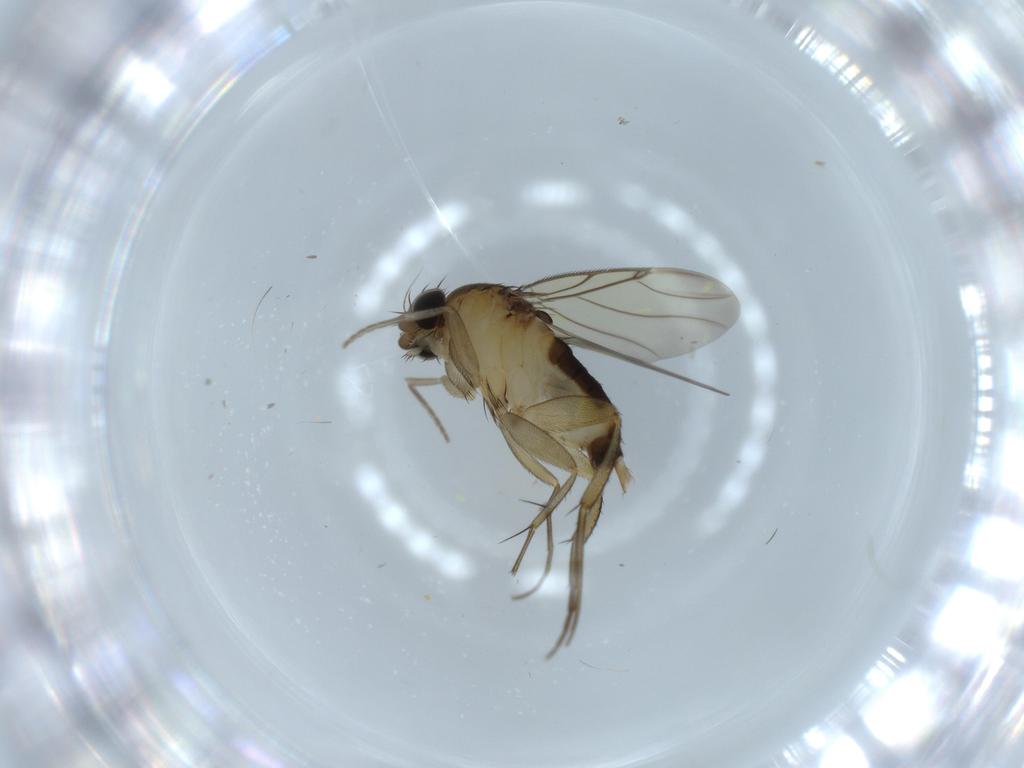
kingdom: Animalia
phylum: Arthropoda
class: Insecta
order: Diptera
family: Phoridae
